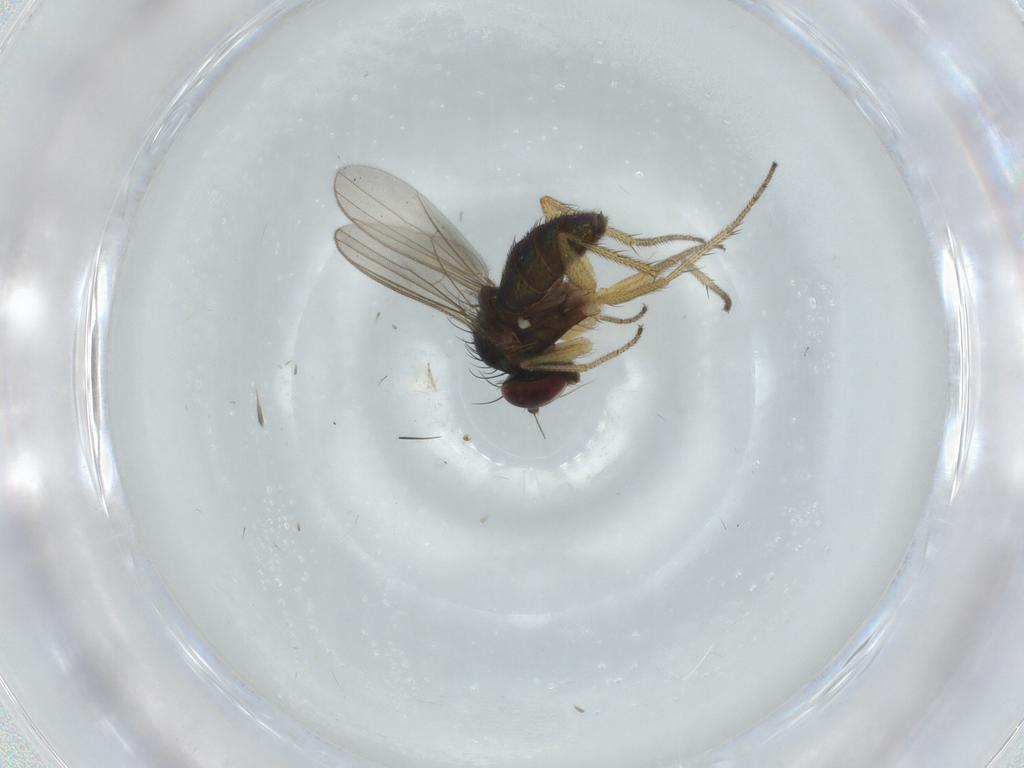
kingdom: Animalia
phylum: Arthropoda
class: Insecta
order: Diptera
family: Dolichopodidae
